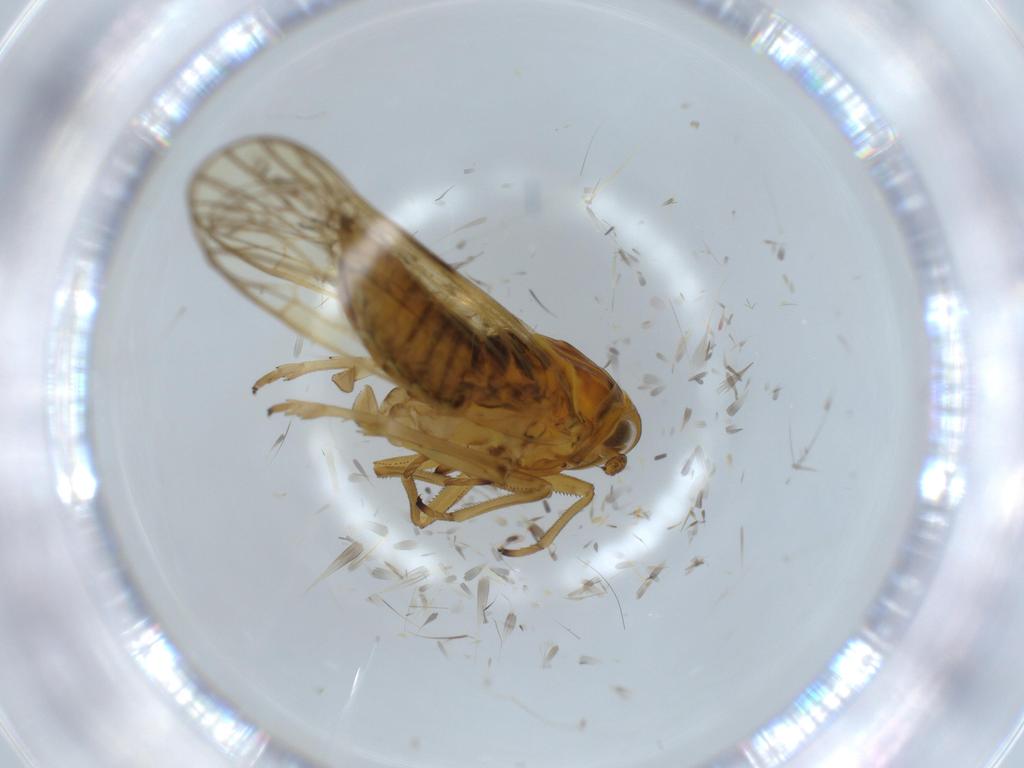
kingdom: Animalia
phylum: Arthropoda
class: Insecta
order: Hemiptera
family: Delphacidae
